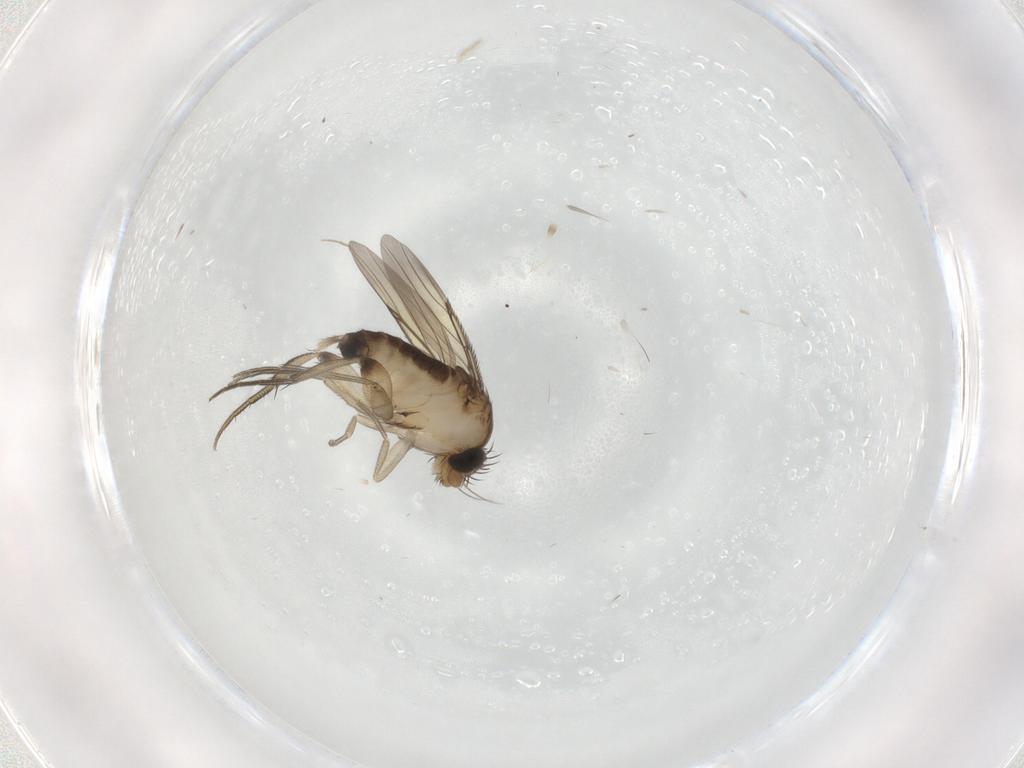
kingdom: Animalia
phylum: Arthropoda
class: Insecta
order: Diptera
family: Phoridae
